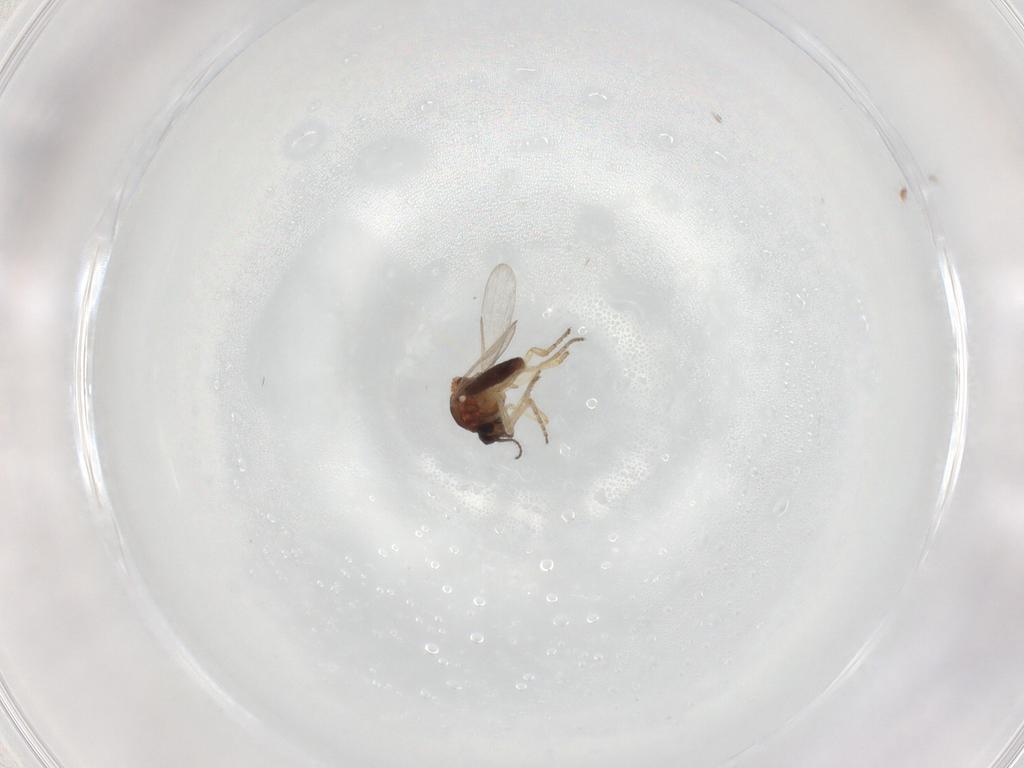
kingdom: Animalia
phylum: Arthropoda
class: Insecta
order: Diptera
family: Ceratopogonidae
